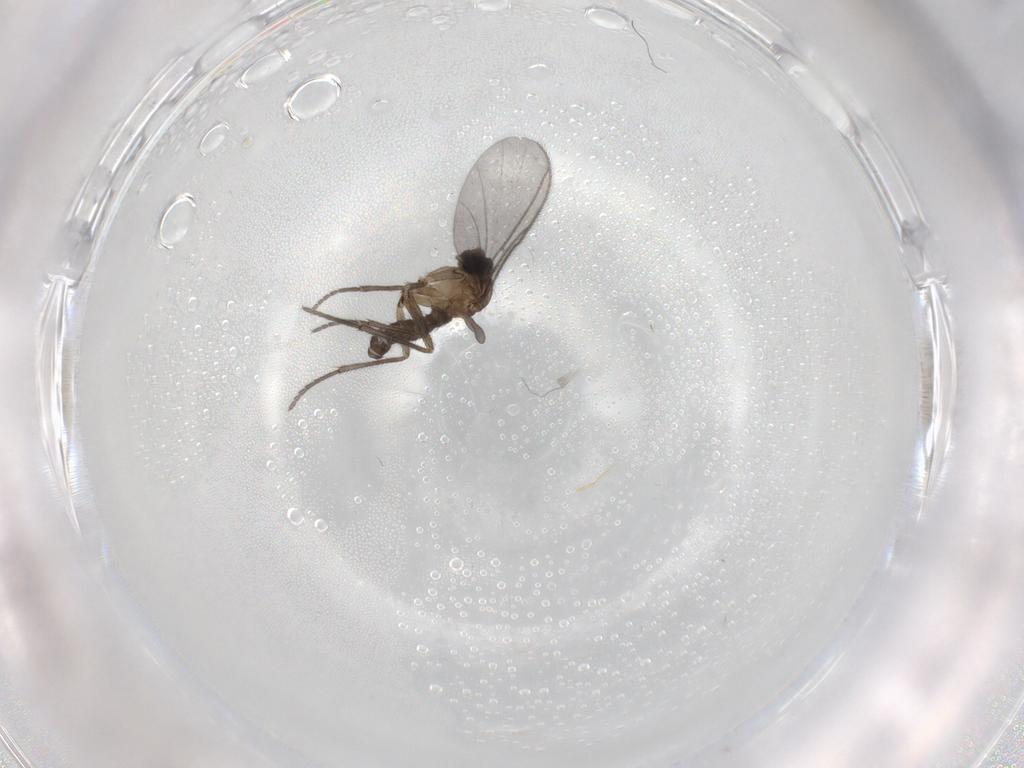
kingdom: Animalia
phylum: Arthropoda
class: Insecta
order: Diptera
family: Sciaridae
